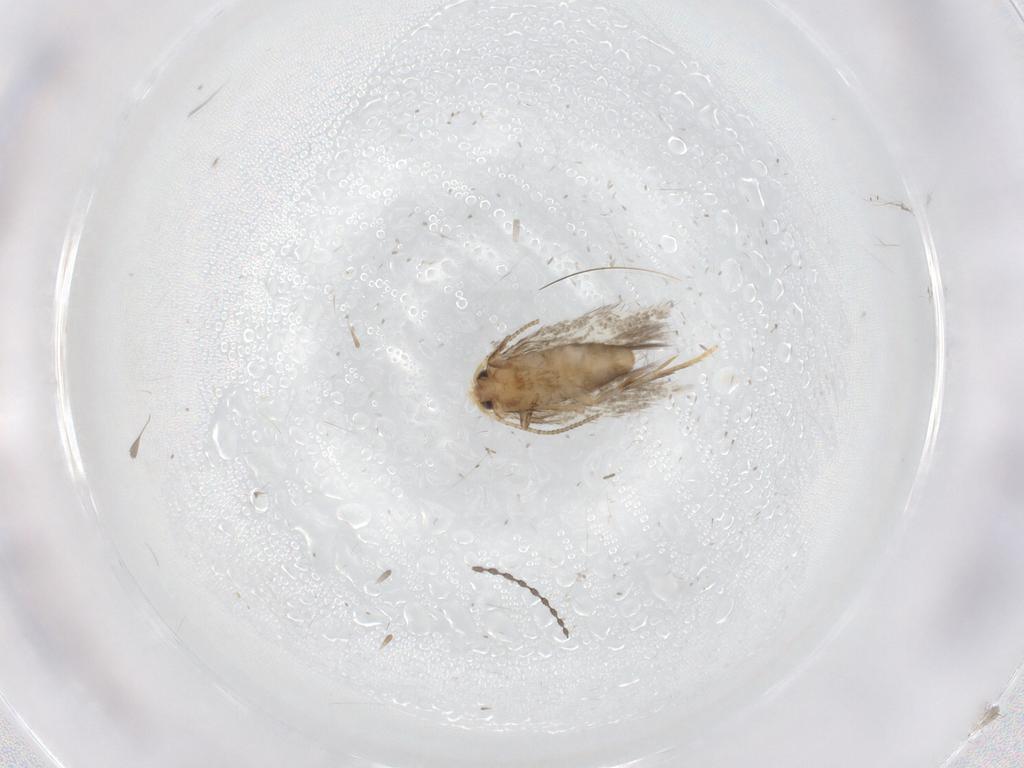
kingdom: Animalia
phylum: Arthropoda
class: Insecta
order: Lepidoptera
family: Nepticulidae
